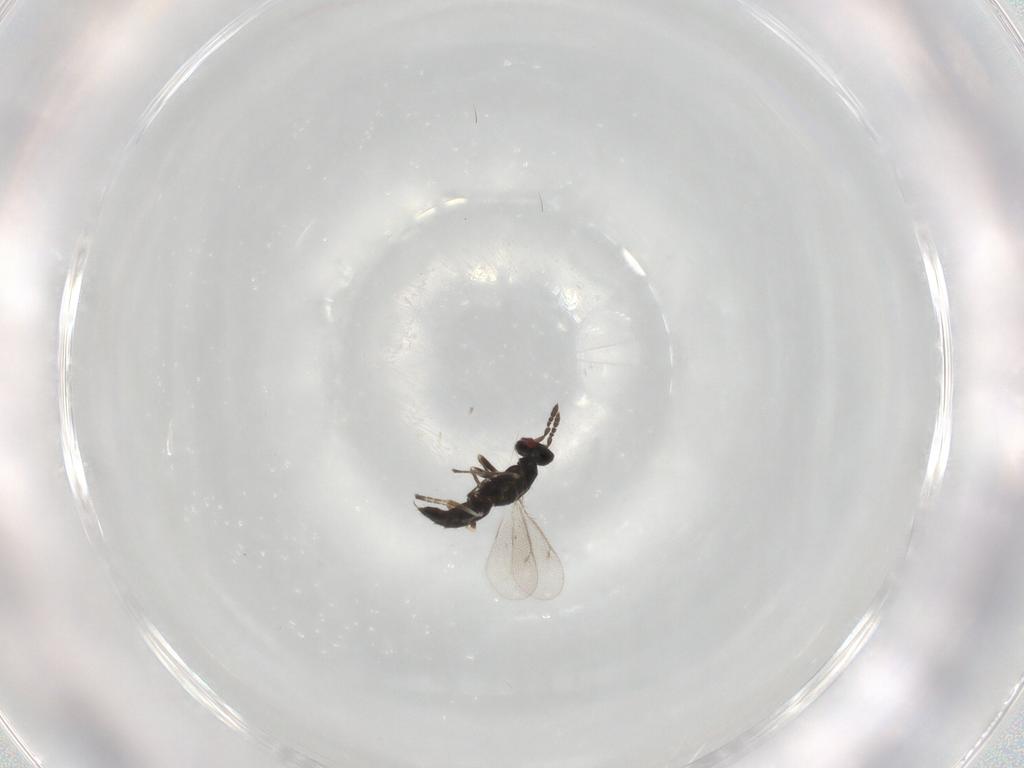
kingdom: Animalia
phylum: Arthropoda
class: Insecta
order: Hymenoptera
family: Eulophidae
